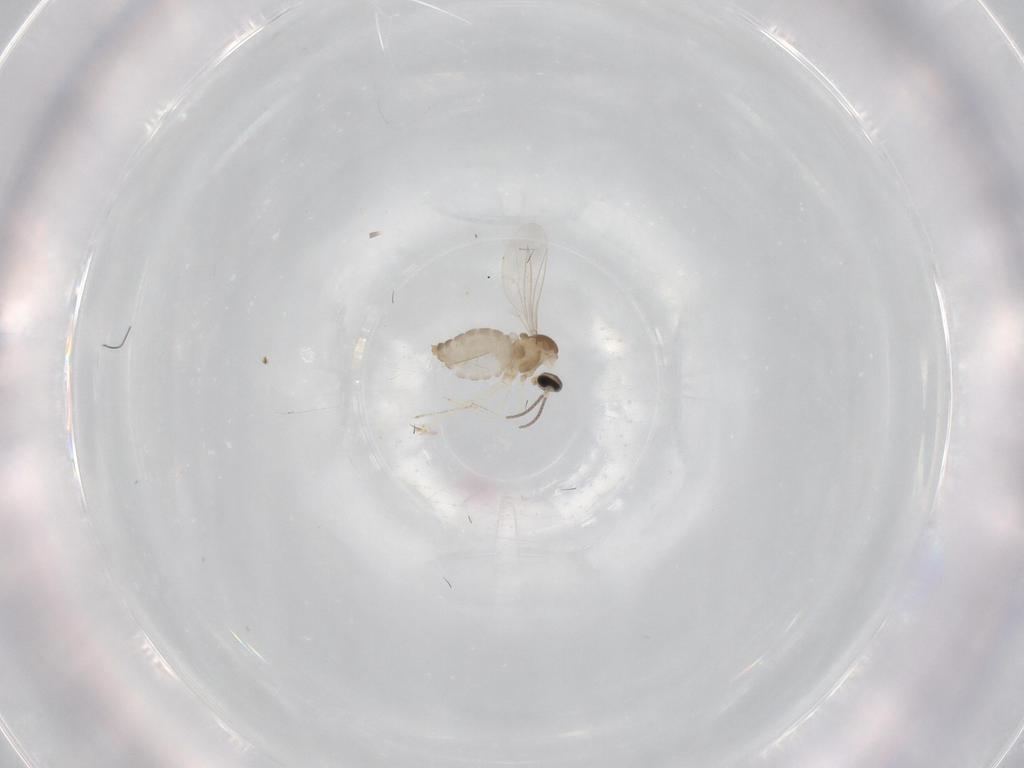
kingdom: Animalia
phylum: Arthropoda
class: Insecta
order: Diptera
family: Cecidomyiidae
